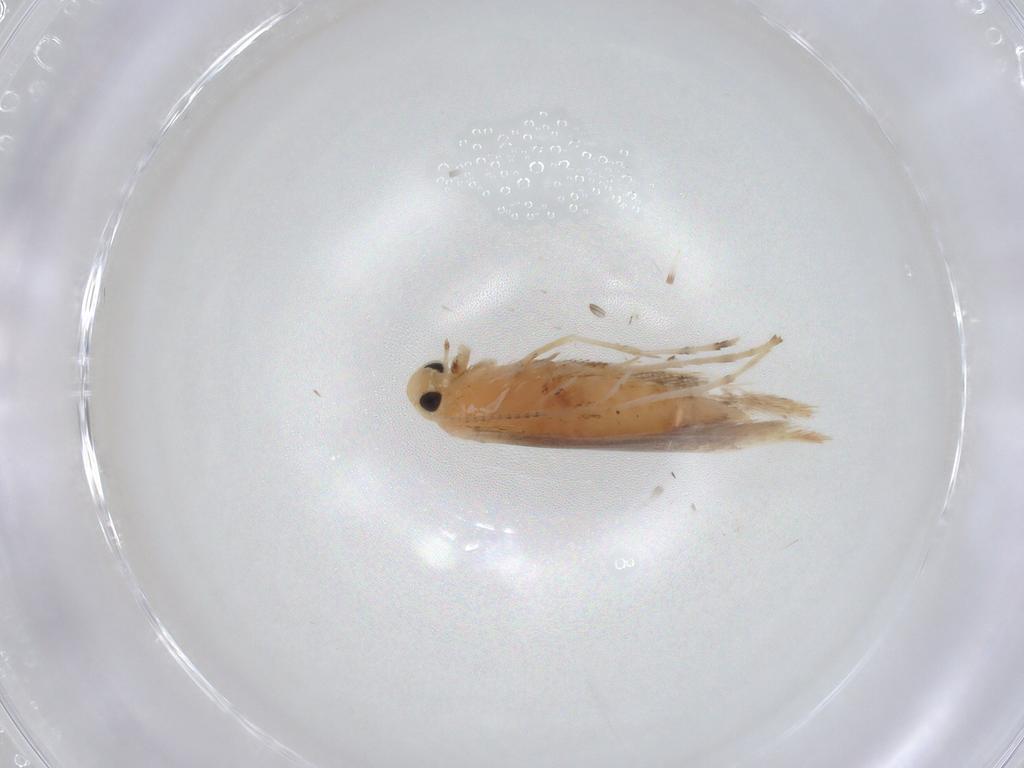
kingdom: Animalia
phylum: Arthropoda
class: Insecta
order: Lepidoptera
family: Gracillariidae
